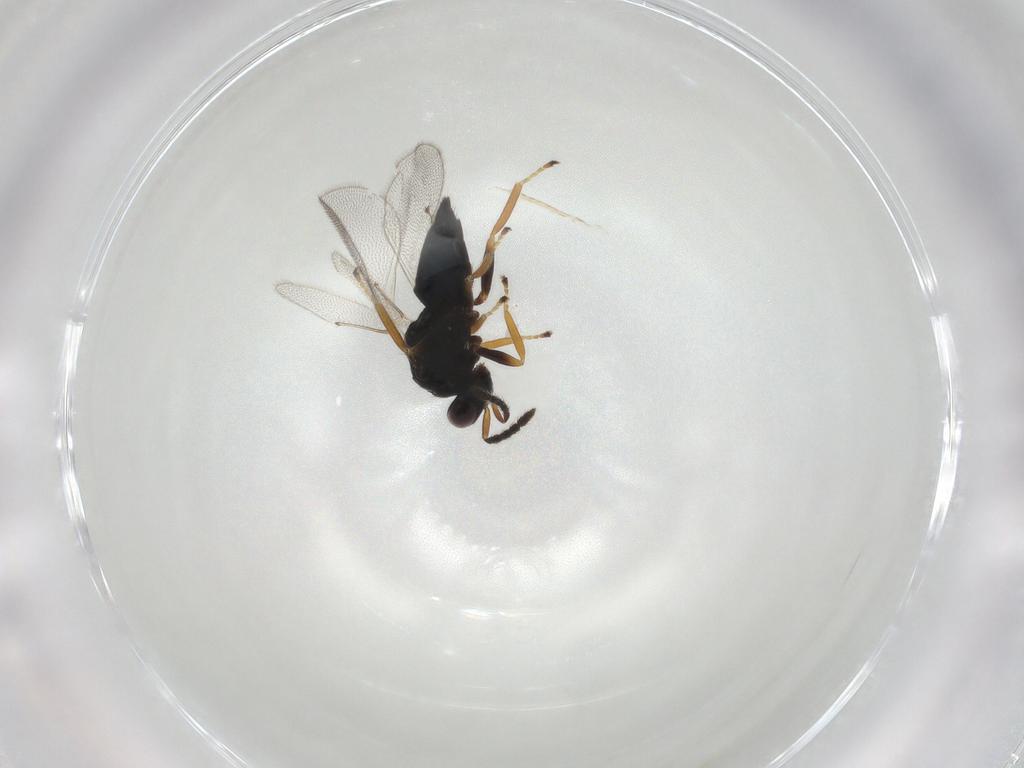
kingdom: Animalia
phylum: Arthropoda
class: Insecta
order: Hymenoptera
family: Eulophidae
